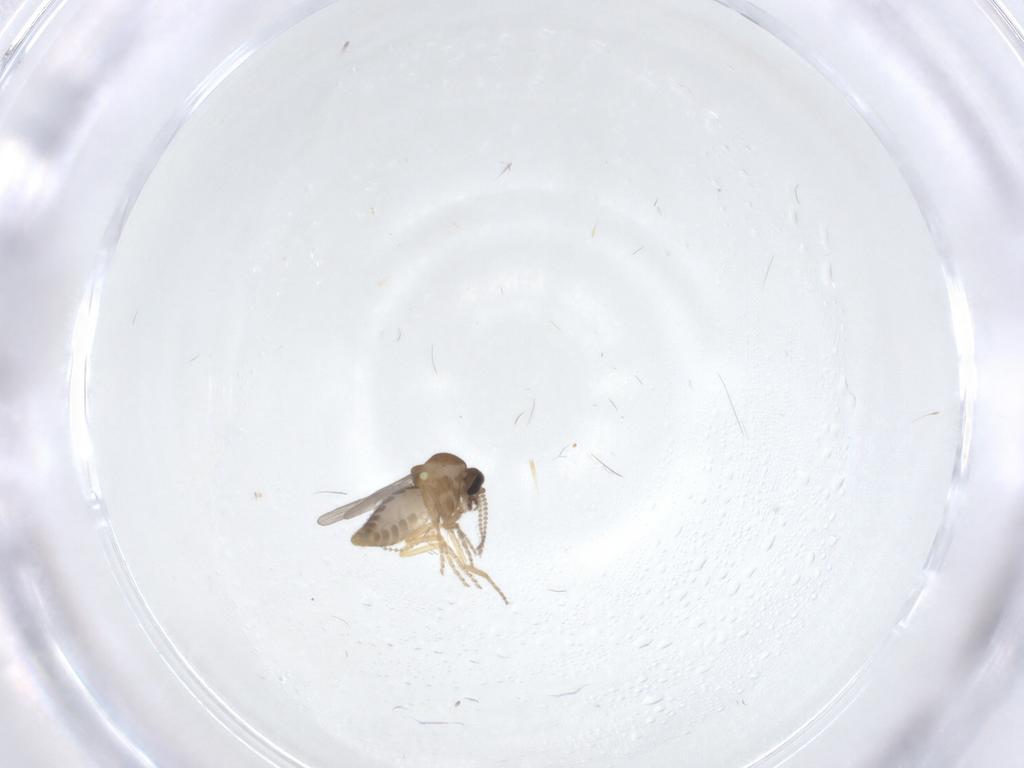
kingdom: Animalia
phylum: Arthropoda
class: Insecta
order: Diptera
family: Ceratopogonidae
